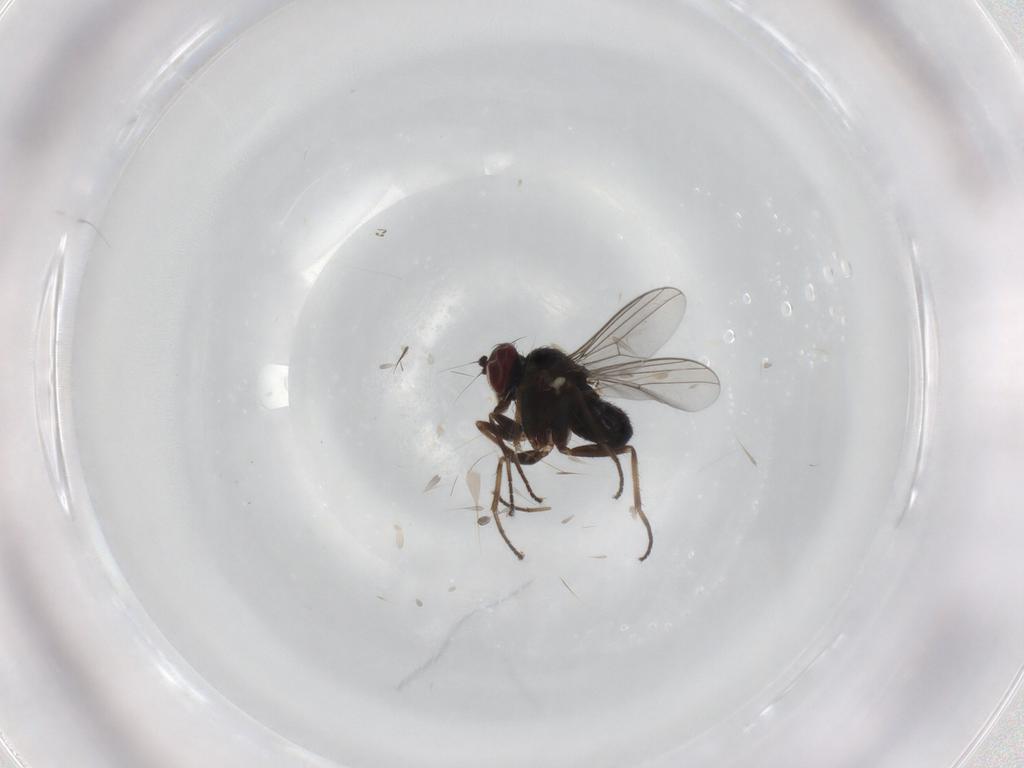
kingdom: Animalia
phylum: Arthropoda
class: Insecta
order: Diptera
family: Dolichopodidae
